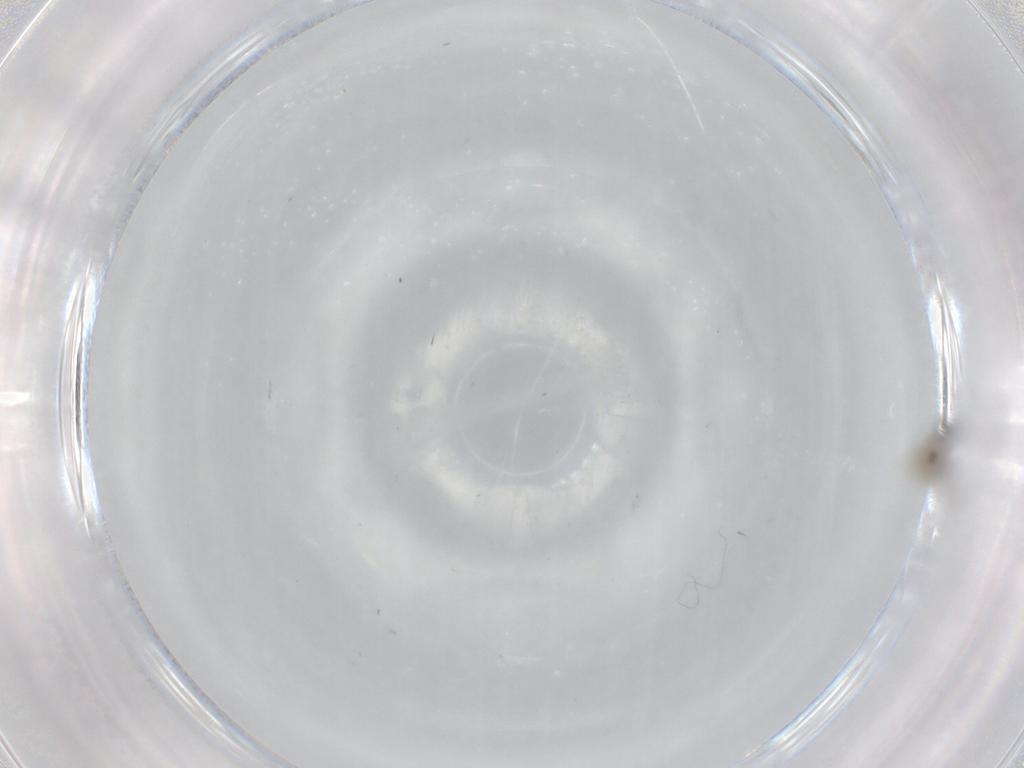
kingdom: Animalia
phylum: Arthropoda
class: Insecta
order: Diptera
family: Cecidomyiidae
